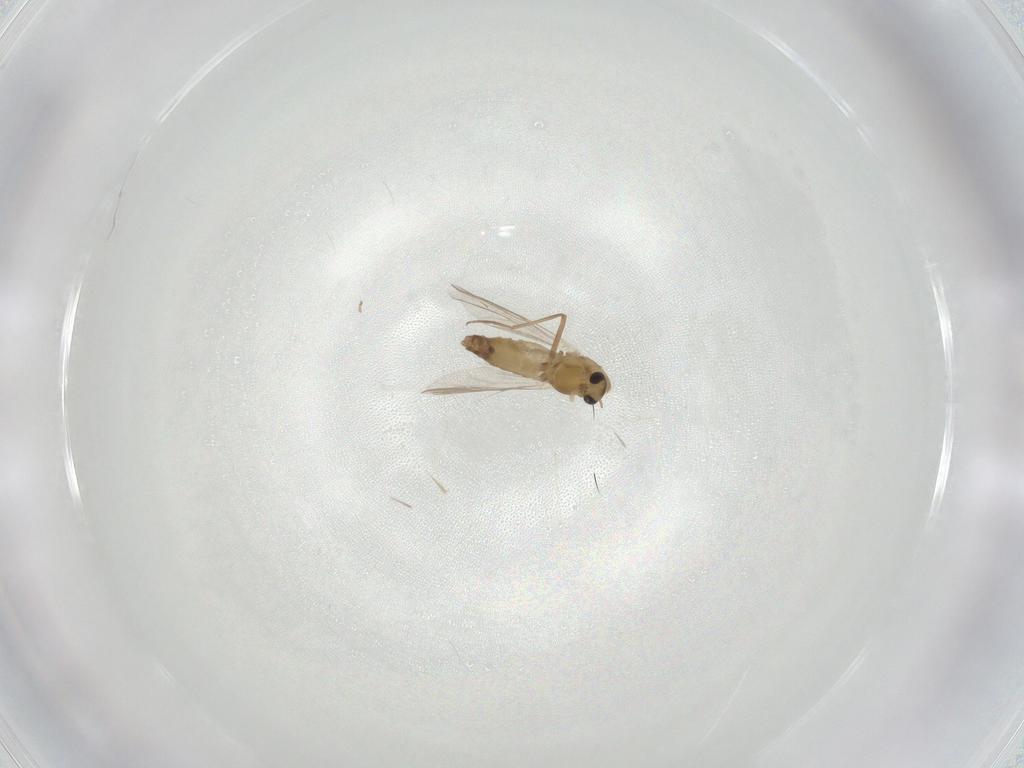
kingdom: Animalia
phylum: Arthropoda
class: Insecta
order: Diptera
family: Chironomidae
